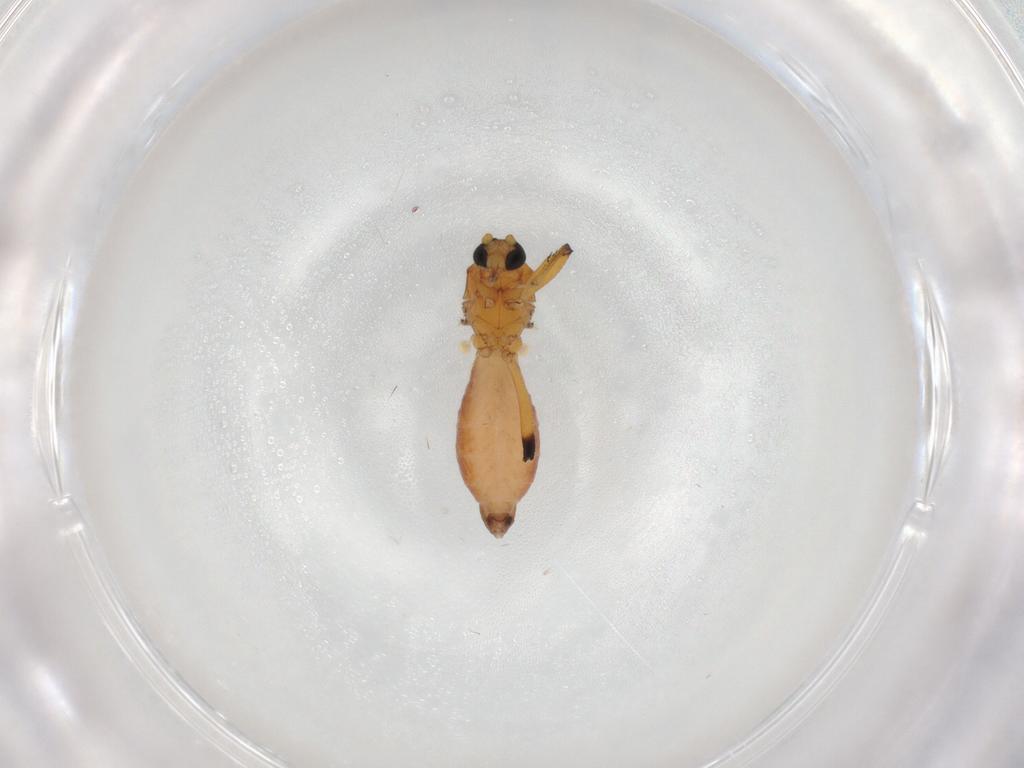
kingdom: Animalia
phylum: Arthropoda
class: Insecta
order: Diptera
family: Ceratopogonidae
